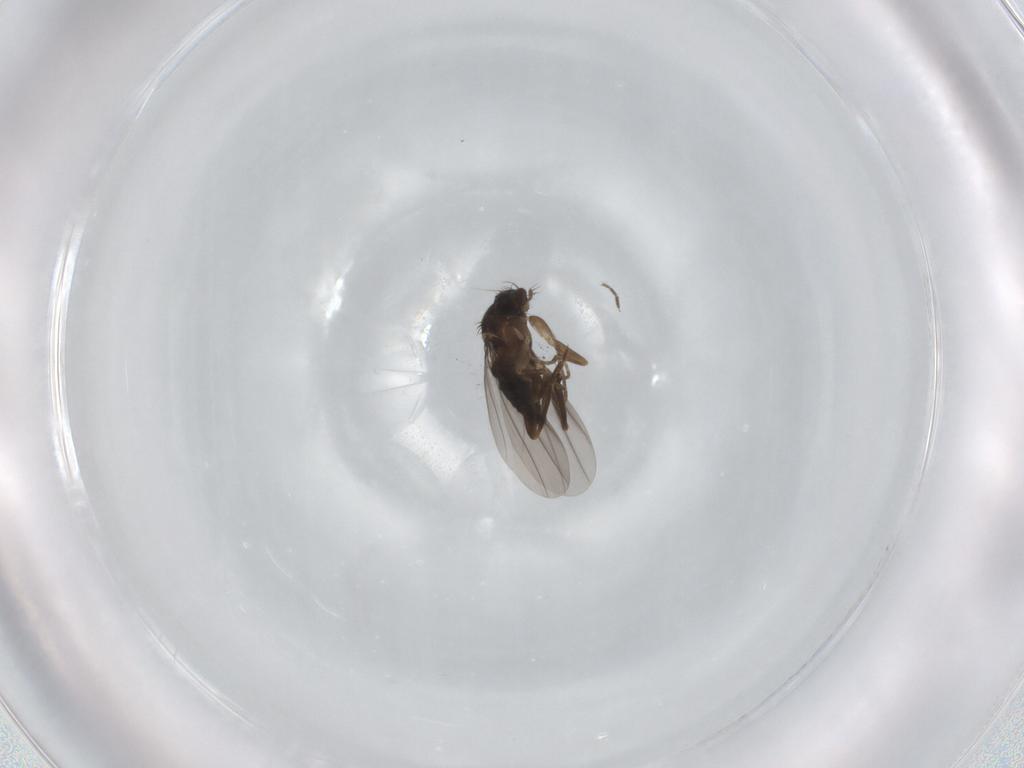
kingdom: Animalia
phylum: Arthropoda
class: Insecta
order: Diptera
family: Phoridae
